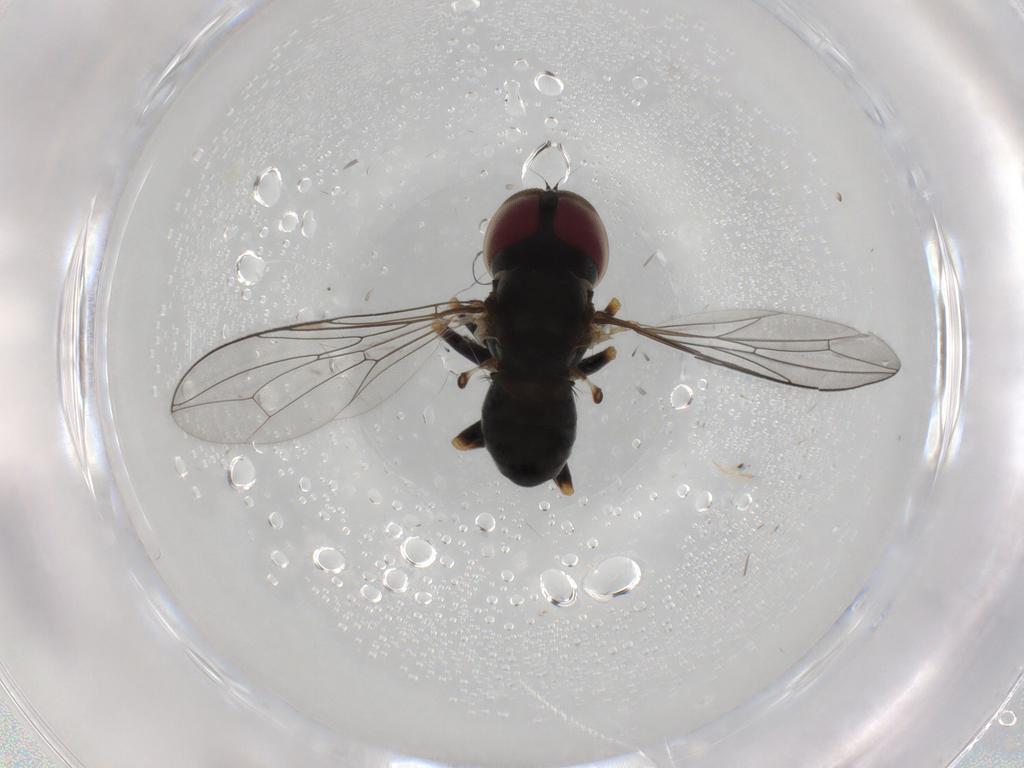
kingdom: Animalia
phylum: Arthropoda
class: Insecta
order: Diptera
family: Pipunculidae
